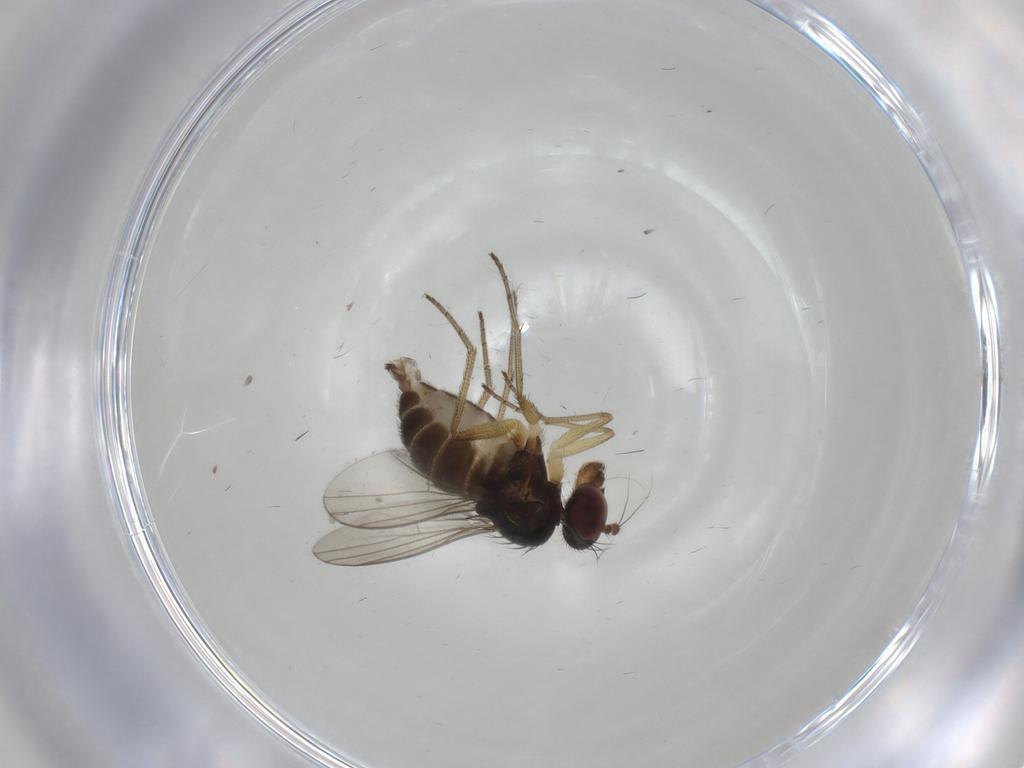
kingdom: Animalia
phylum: Arthropoda
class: Insecta
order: Diptera
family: Dolichopodidae
